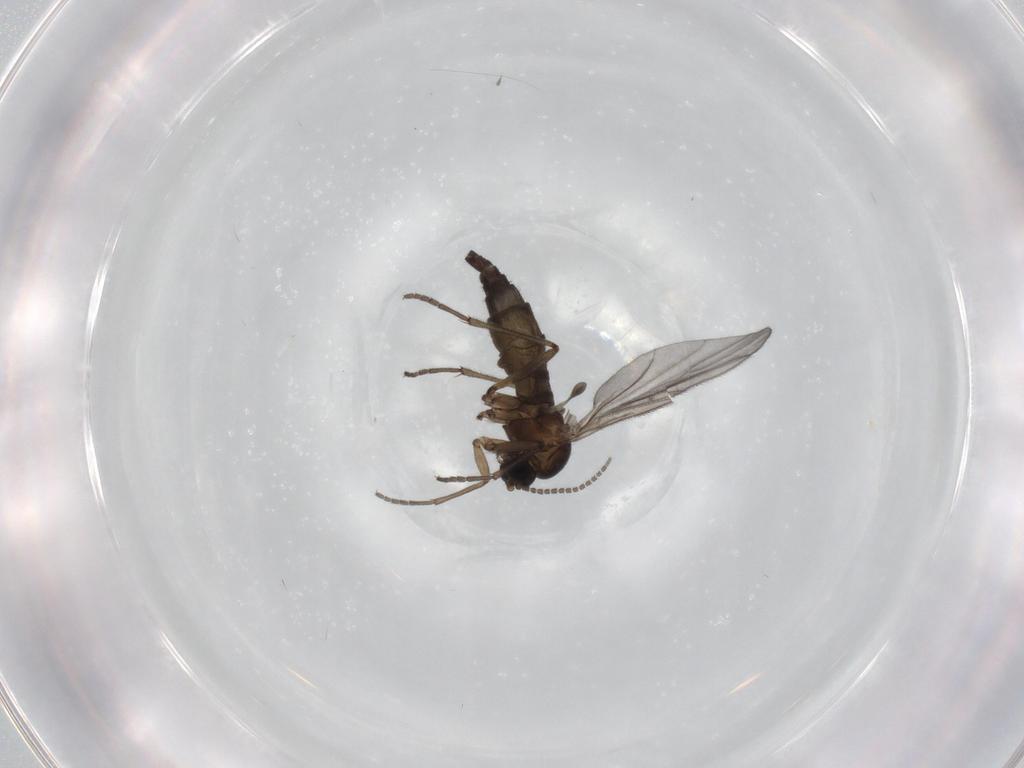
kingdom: Animalia
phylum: Arthropoda
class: Insecta
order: Diptera
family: Sciaridae
